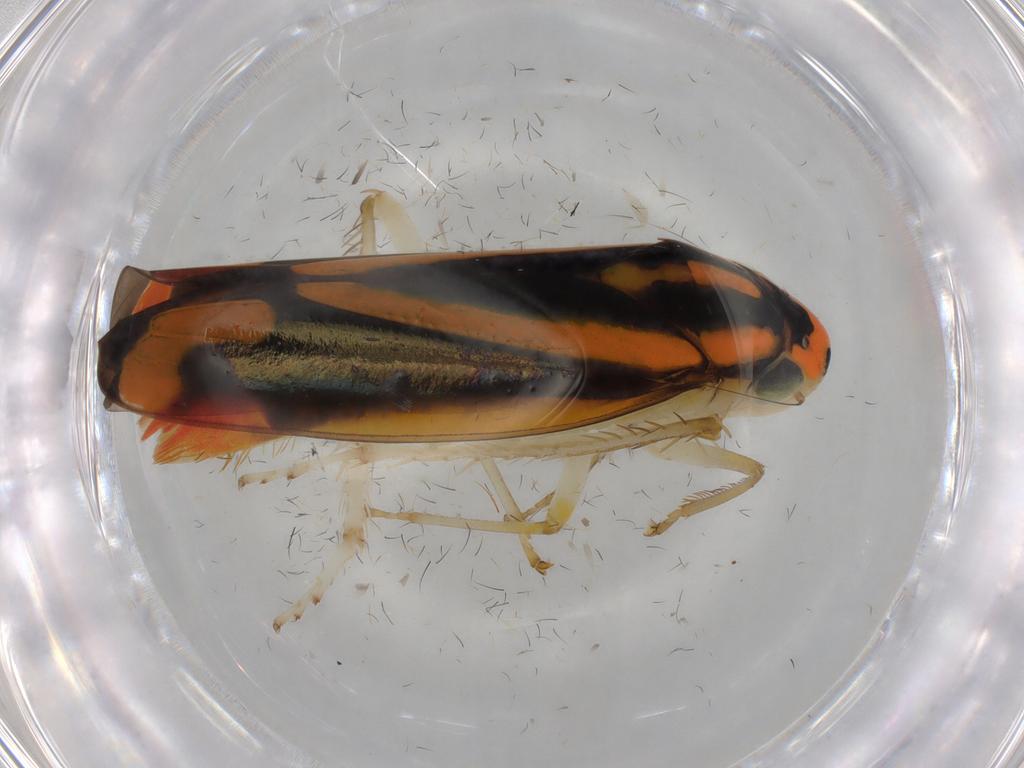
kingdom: Animalia
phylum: Arthropoda
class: Insecta
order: Hemiptera
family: Cicadellidae
